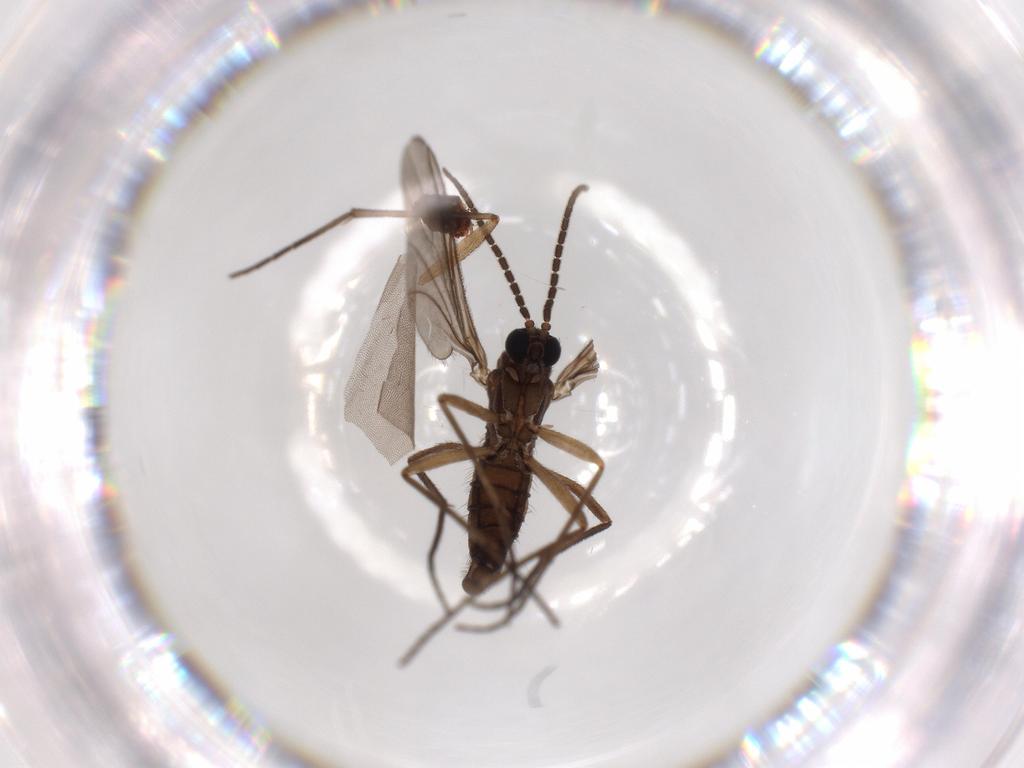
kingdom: Animalia
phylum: Arthropoda
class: Insecta
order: Diptera
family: Sciaridae
